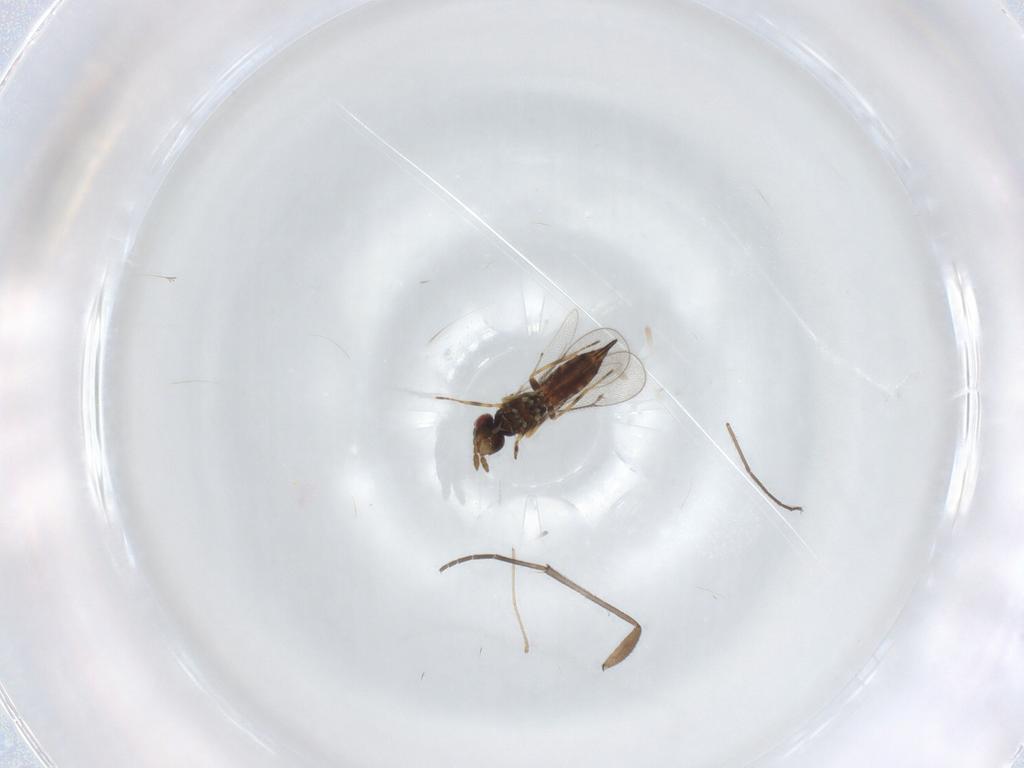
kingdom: Animalia
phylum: Arthropoda
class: Insecta
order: Hymenoptera
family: Eulophidae
